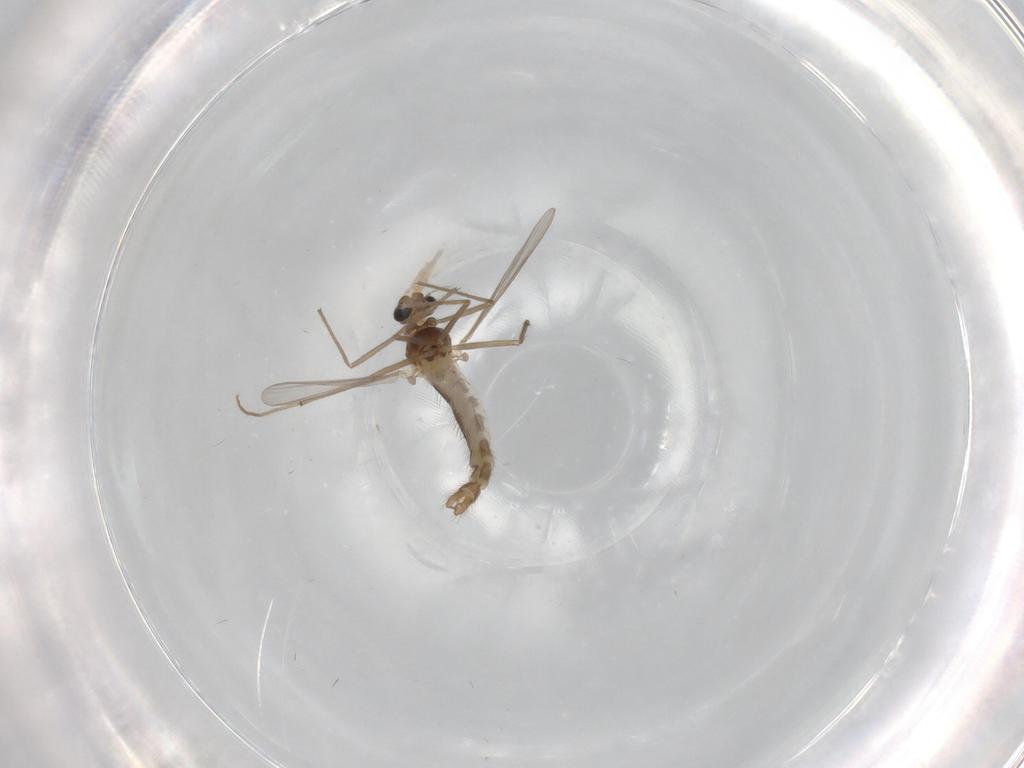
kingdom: Animalia
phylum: Arthropoda
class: Insecta
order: Diptera
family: Chironomidae
